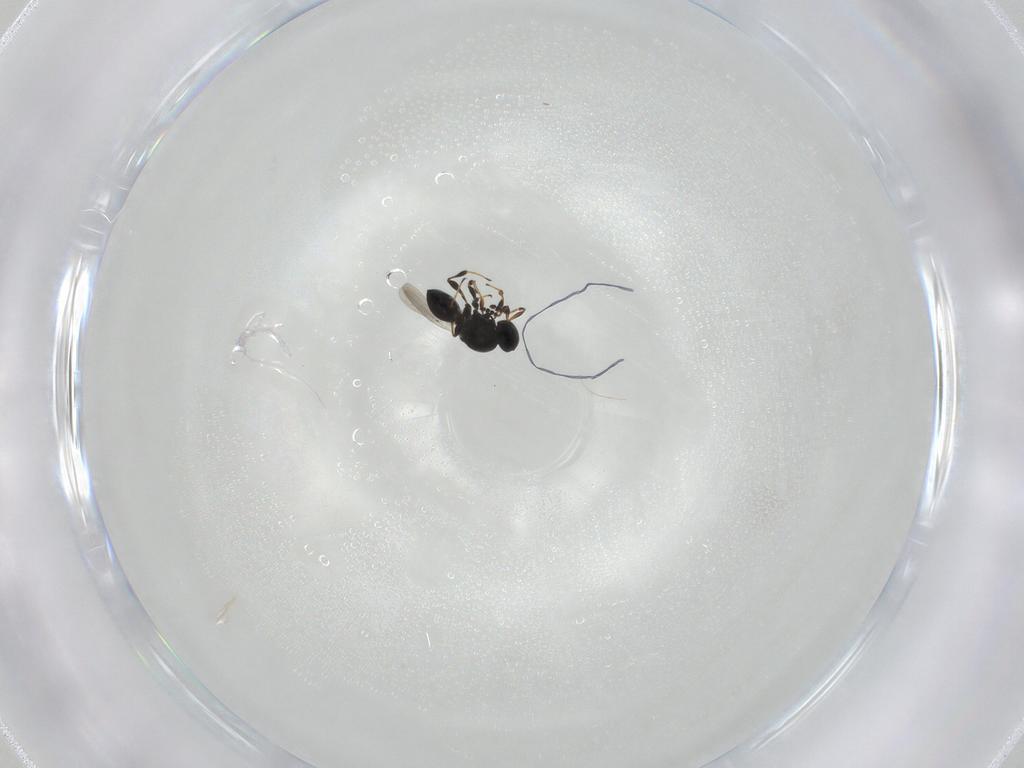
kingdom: Animalia
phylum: Arthropoda
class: Insecta
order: Hymenoptera
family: Platygastridae
